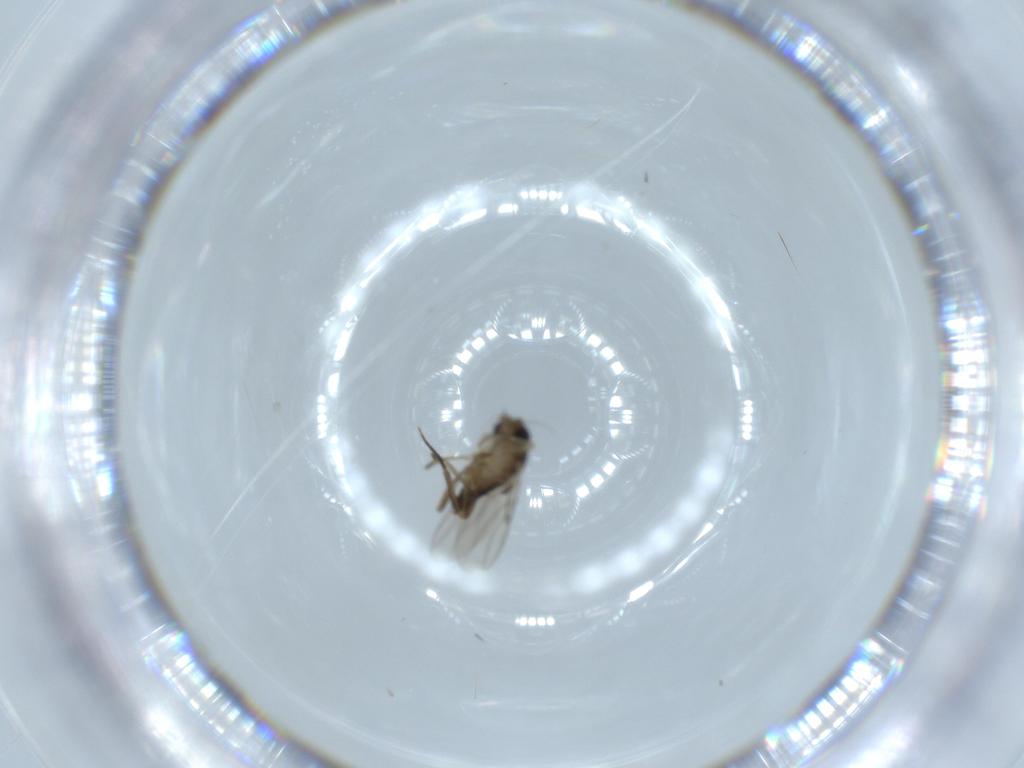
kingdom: Animalia
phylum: Arthropoda
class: Insecta
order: Diptera
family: Phoridae
